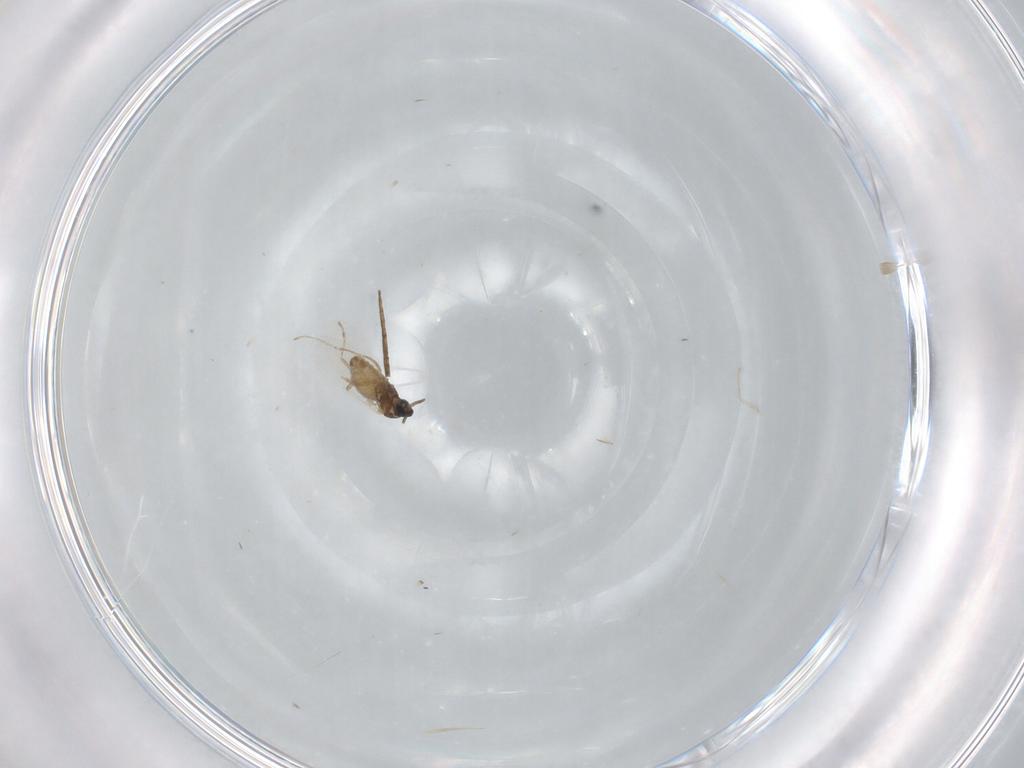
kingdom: Animalia
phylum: Arthropoda
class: Insecta
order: Diptera
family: Cecidomyiidae
